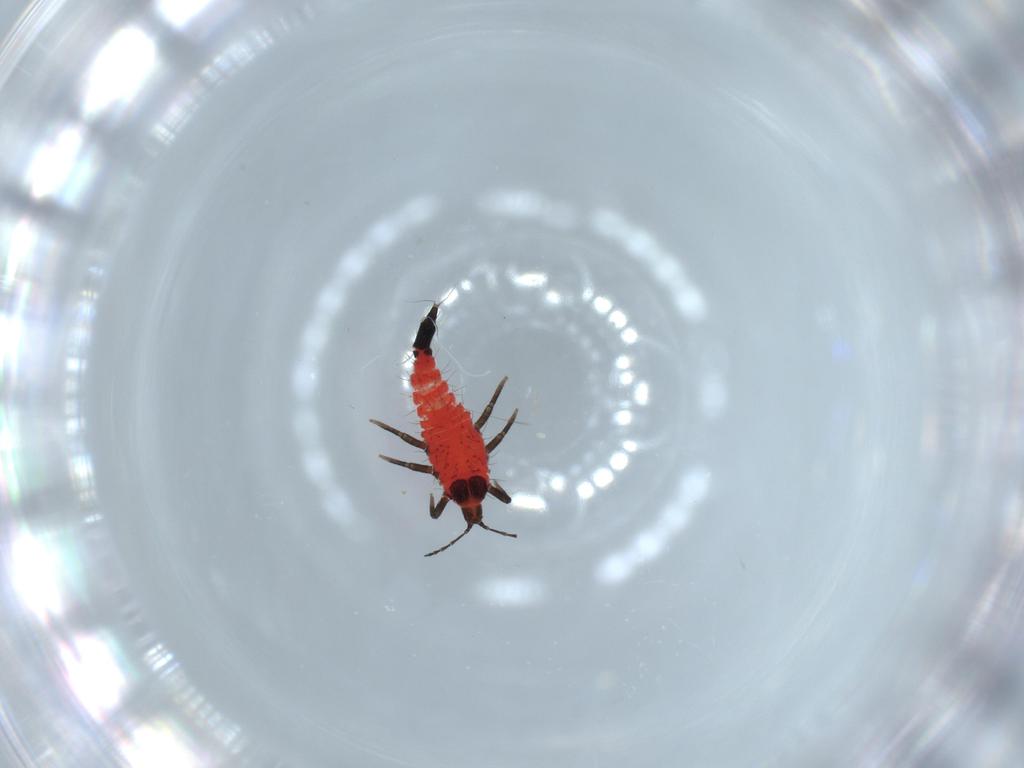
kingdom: Animalia
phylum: Arthropoda
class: Insecta
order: Thysanoptera
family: Phlaeothripidae
